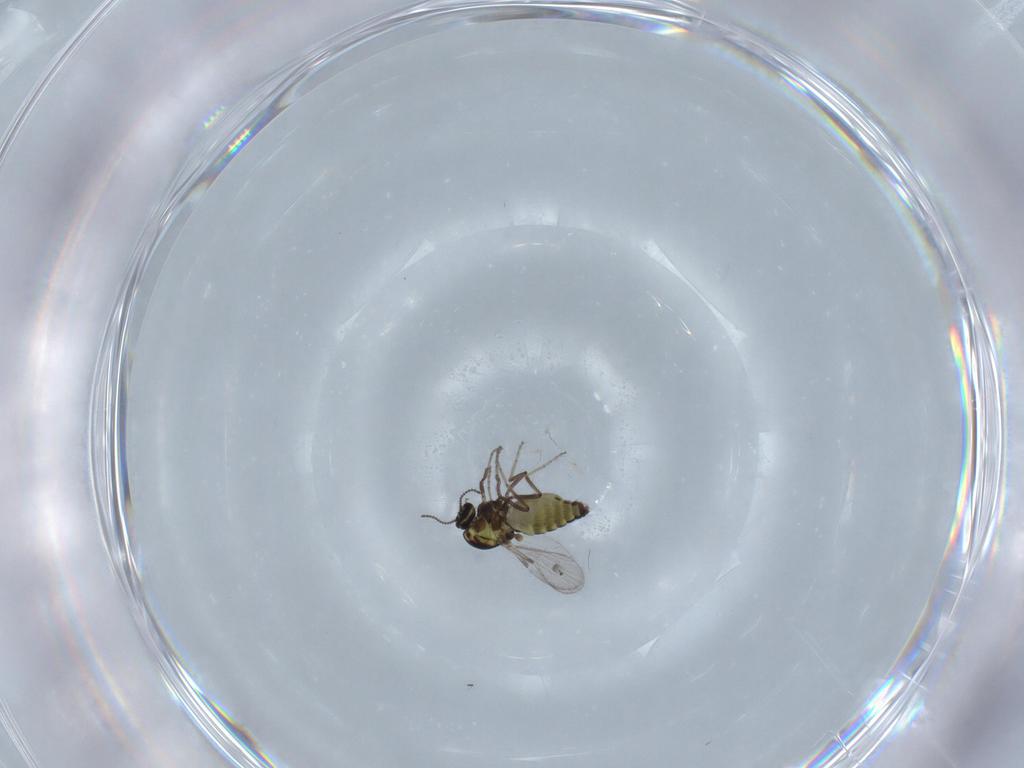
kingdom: Animalia
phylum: Arthropoda
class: Insecta
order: Diptera
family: Ceratopogonidae
